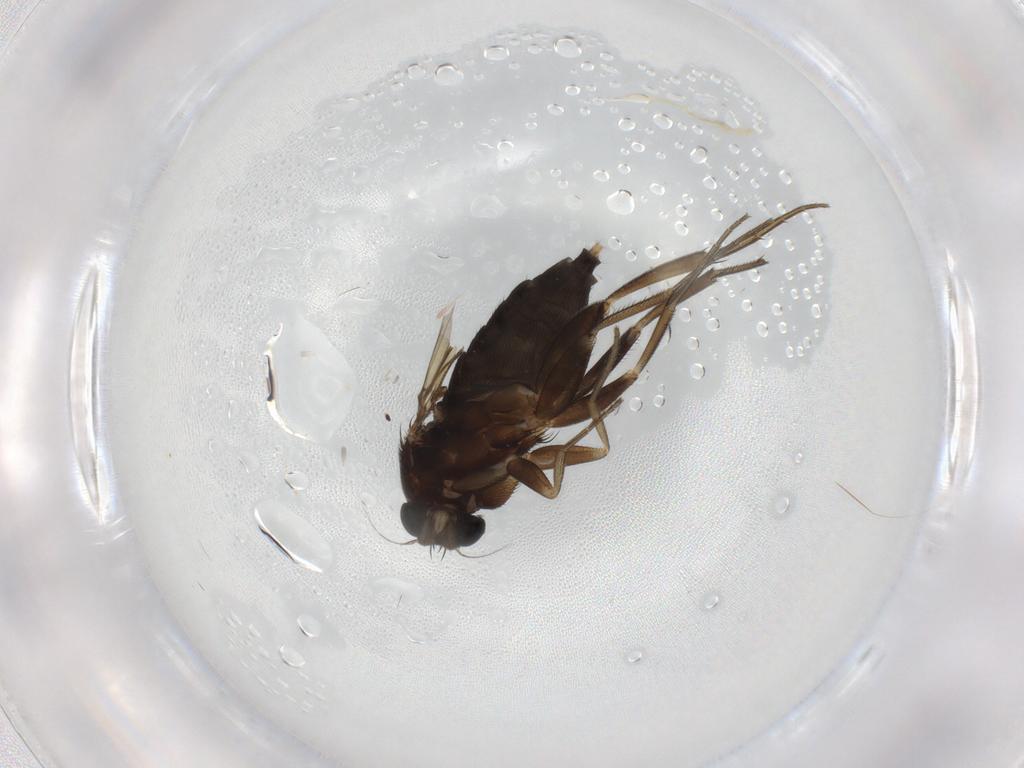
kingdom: Animalia
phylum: Arthropoda
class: Insecta
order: Diptera
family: Phoridae
